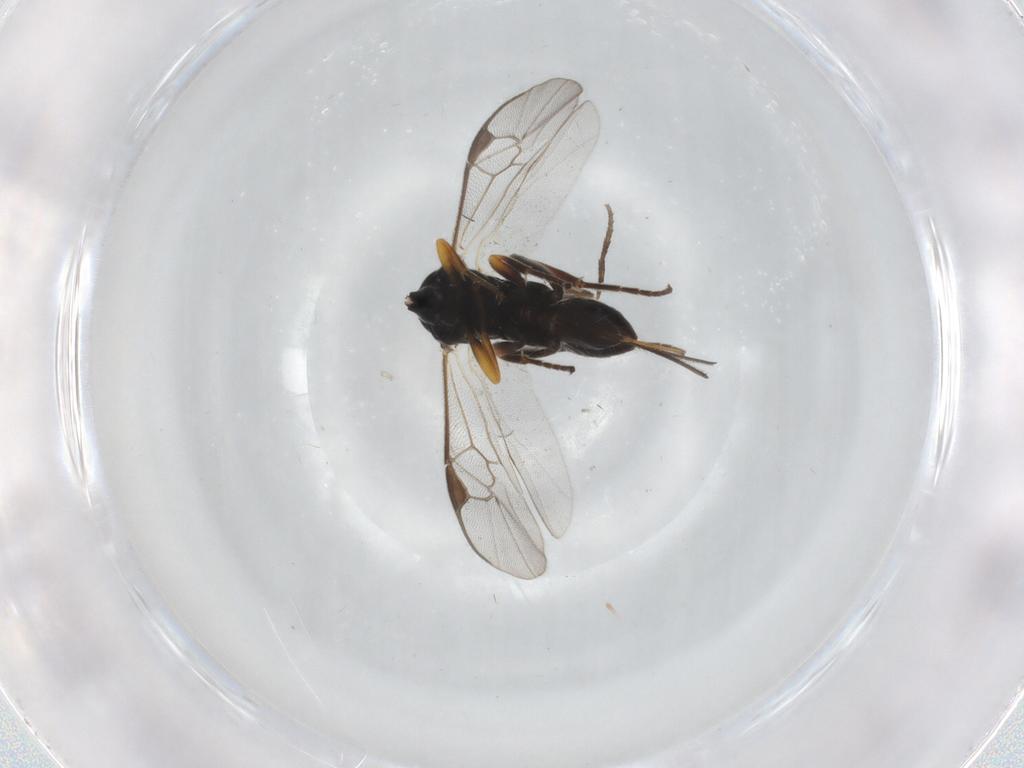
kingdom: Animalia
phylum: Arthropoda
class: Insecta
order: Hymenoptera
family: Braconidae
